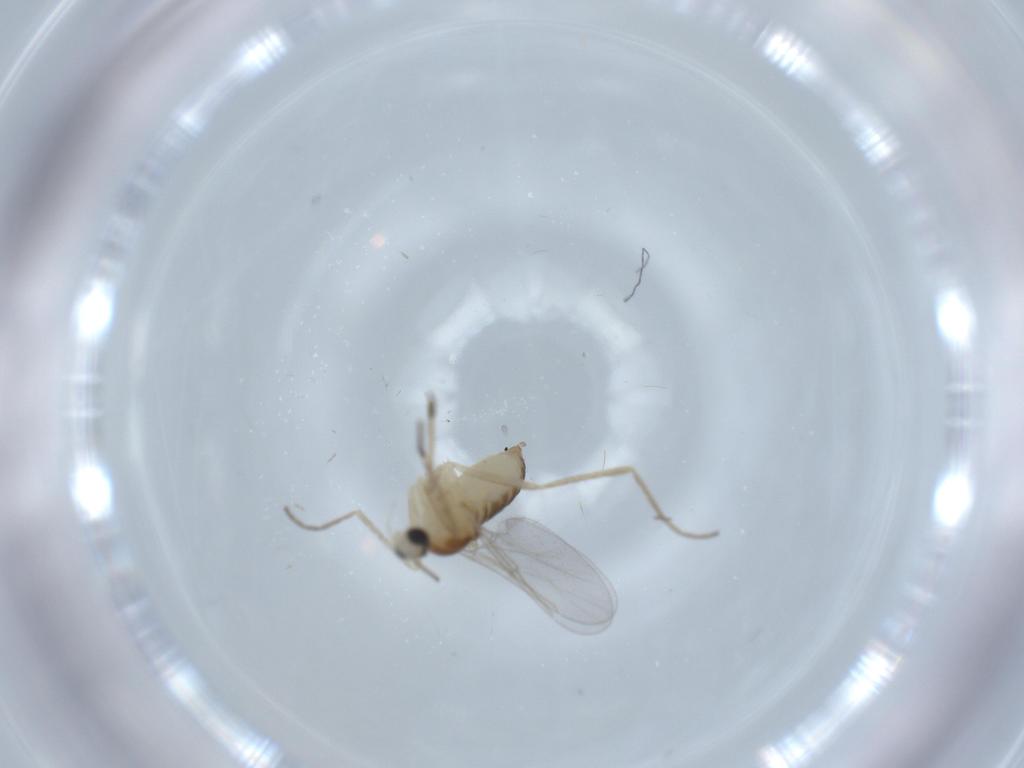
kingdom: Animalia
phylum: Arthropoda
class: Insecta
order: Diptera
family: Cecidomyiidae
